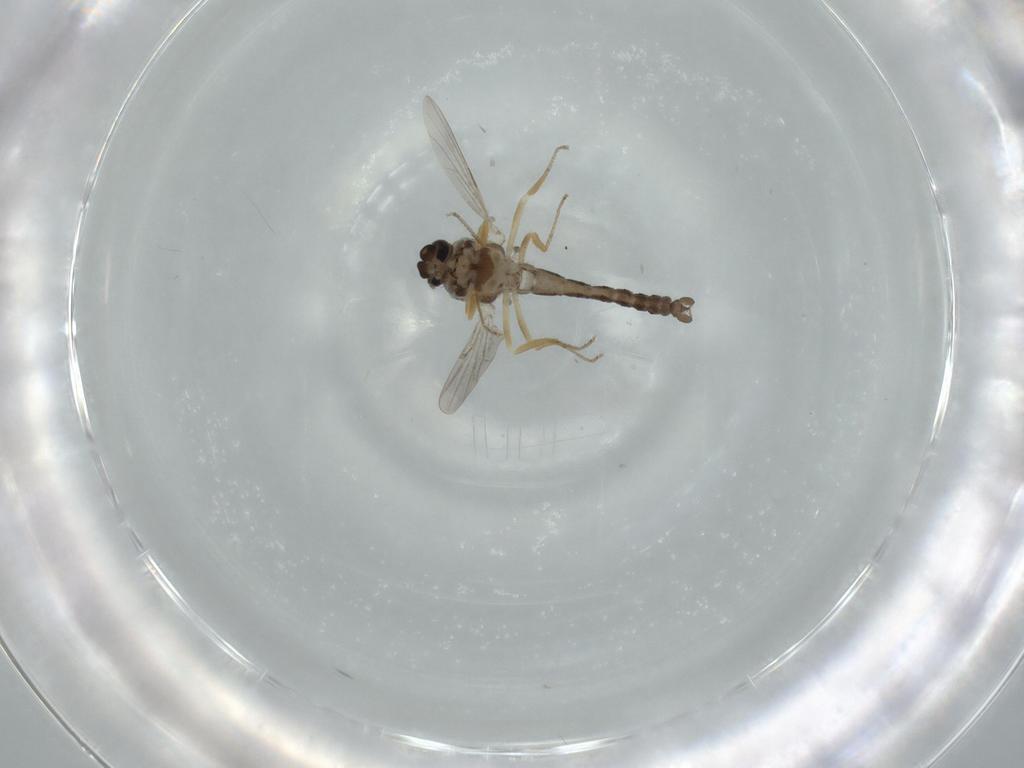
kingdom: Animalia
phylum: Arthropoda
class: Insecta
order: Diptera
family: Ceratopogonidae
